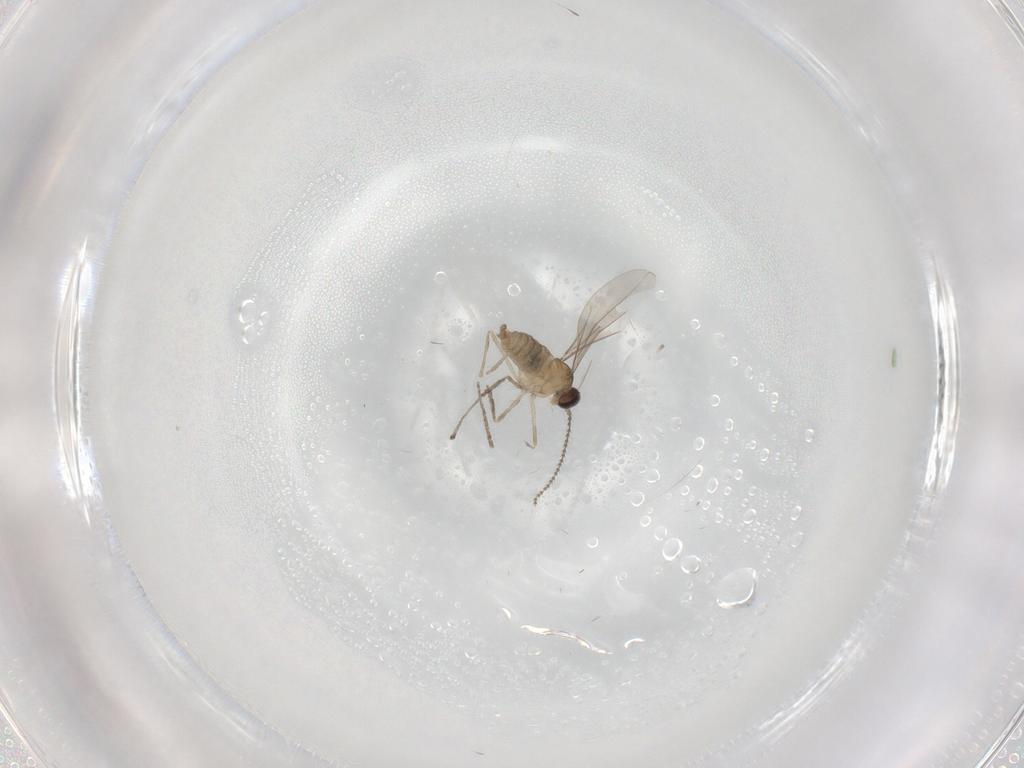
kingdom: Animalia
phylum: Arthropoda
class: Insecta
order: Diptera
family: Cecidomyiidae
